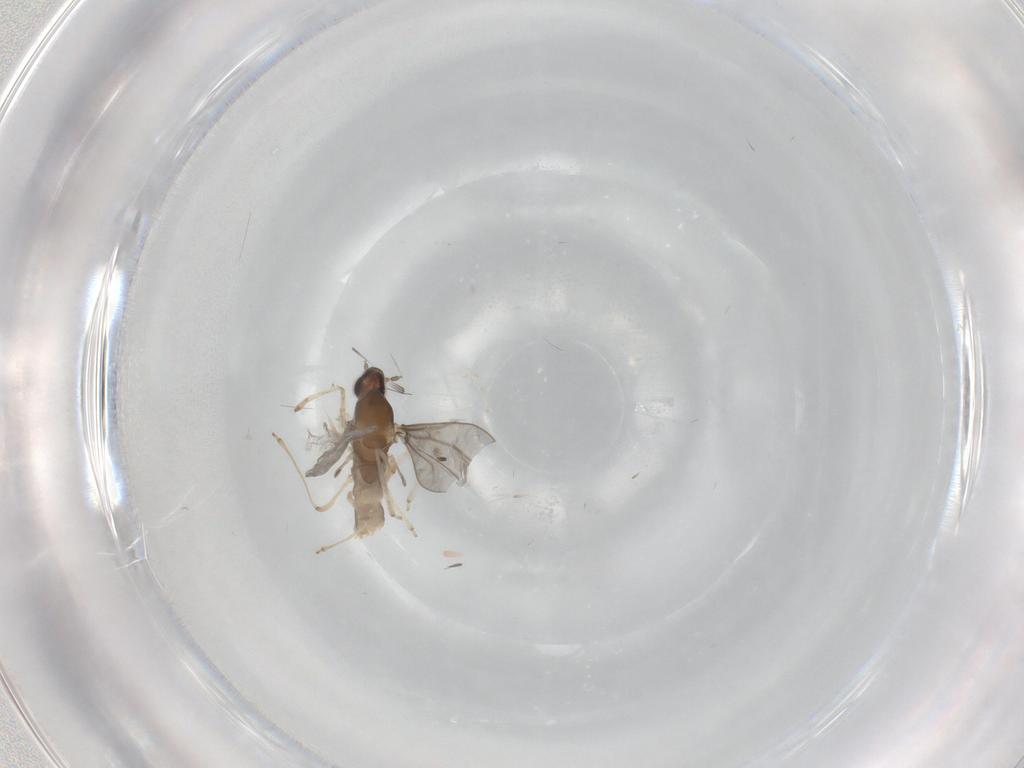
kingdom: Animalia
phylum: Arthropoda
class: Insecta
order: Diptera
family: Cecidomyiidae
